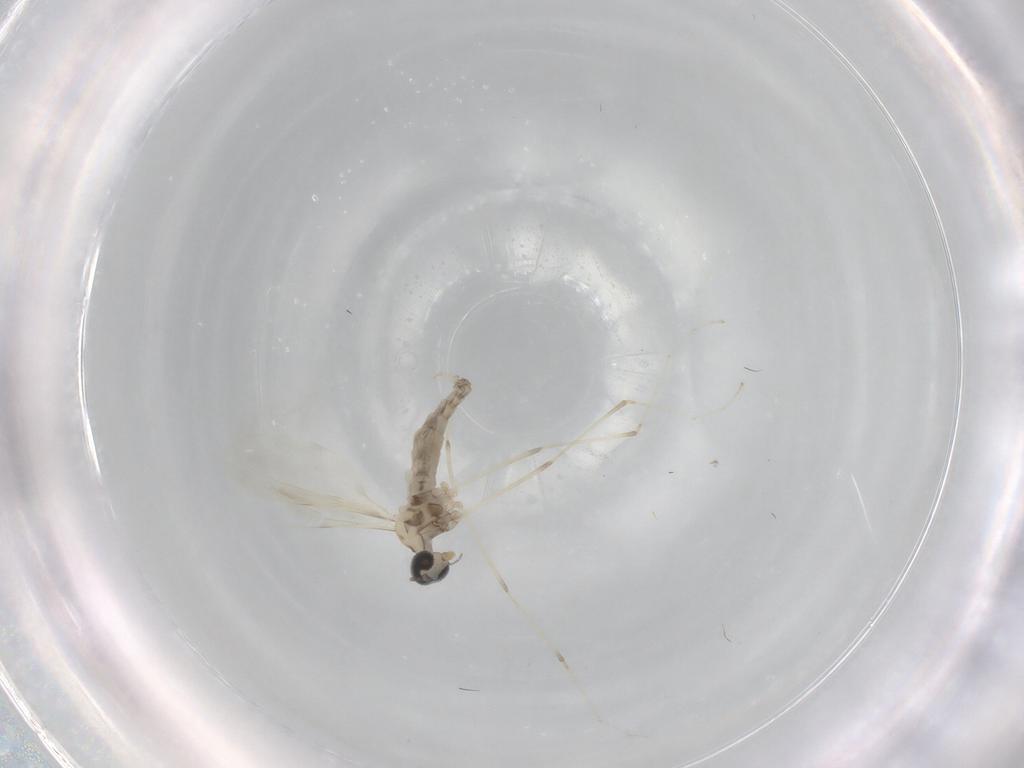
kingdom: Animalia
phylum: Arthropoda
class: Insecta
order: Diptera
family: Cecidomyiidae
